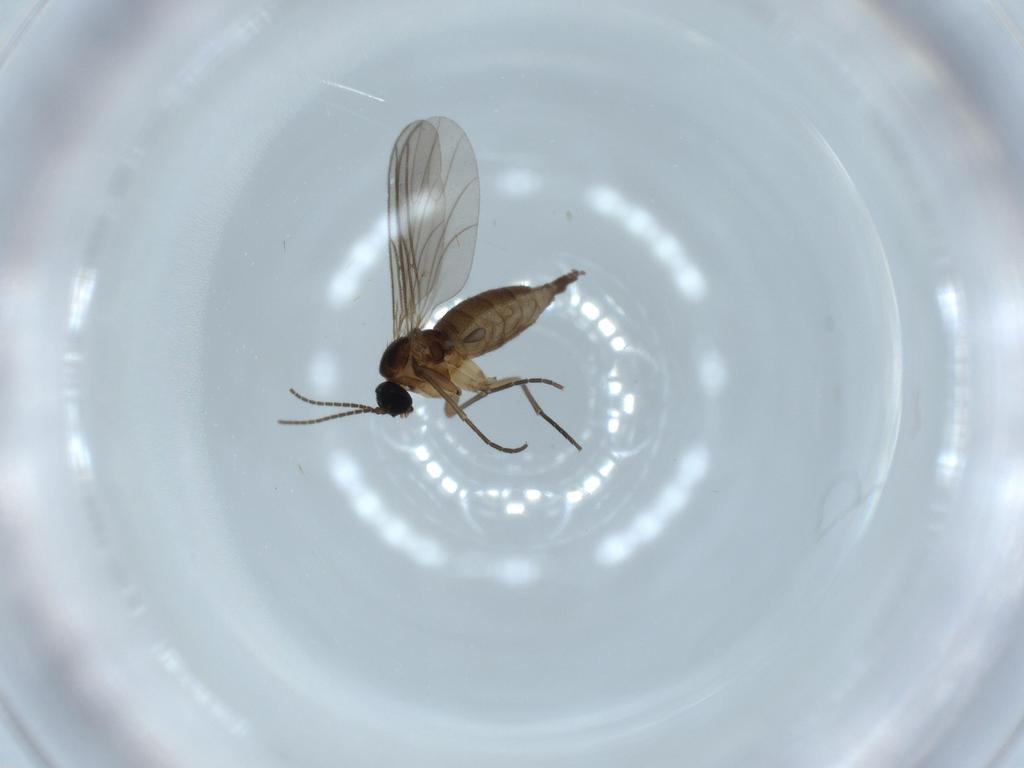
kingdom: Animalia
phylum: Arthropoda
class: Insecta
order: Diptera
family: Sciaridae
